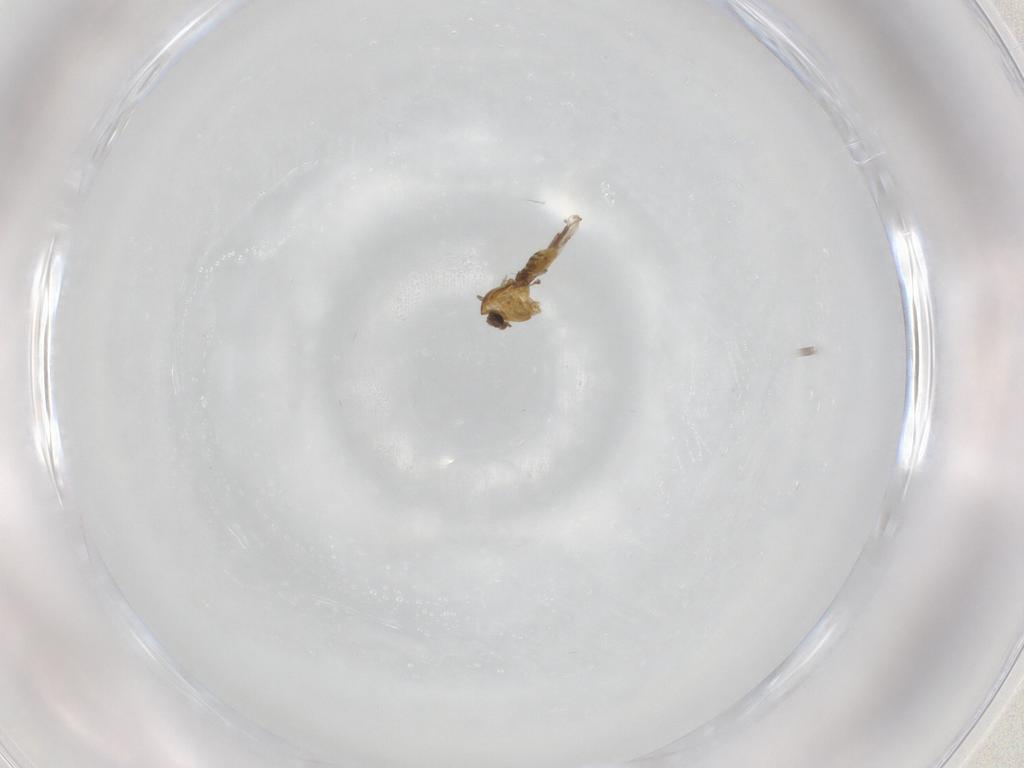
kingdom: Animalia
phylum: Arthropoda
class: Insecta
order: Diptera
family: Chironomidae
